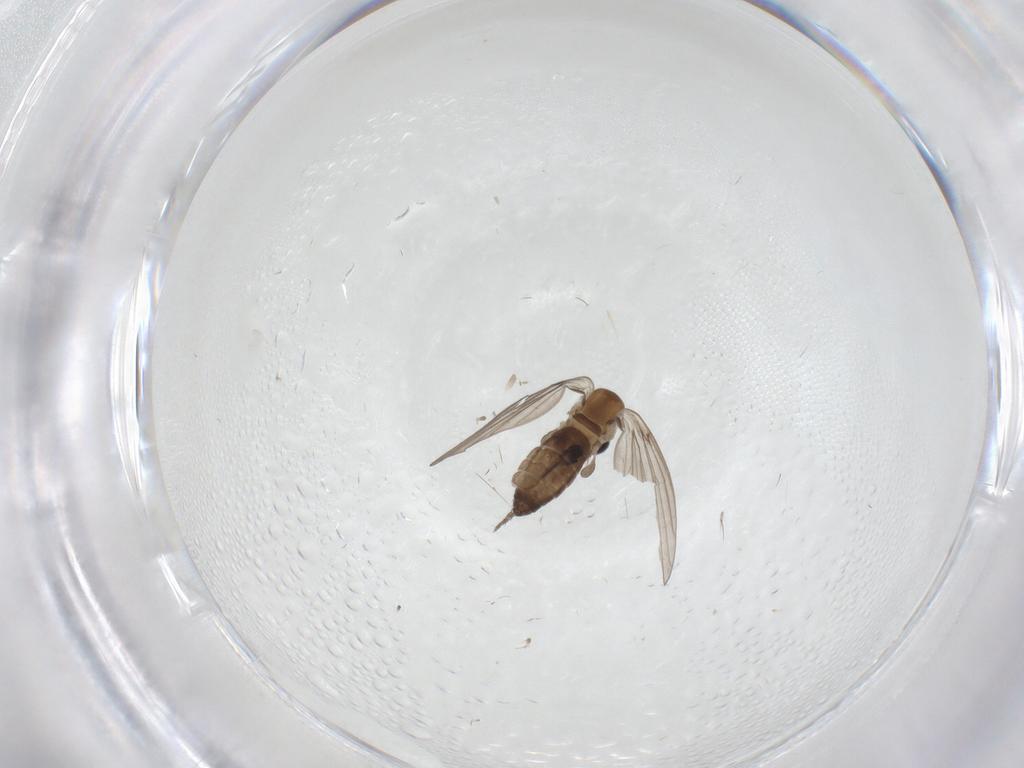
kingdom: Animalia
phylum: Arthropoda
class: Insecta
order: Diptera
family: Cecidomyiidae
